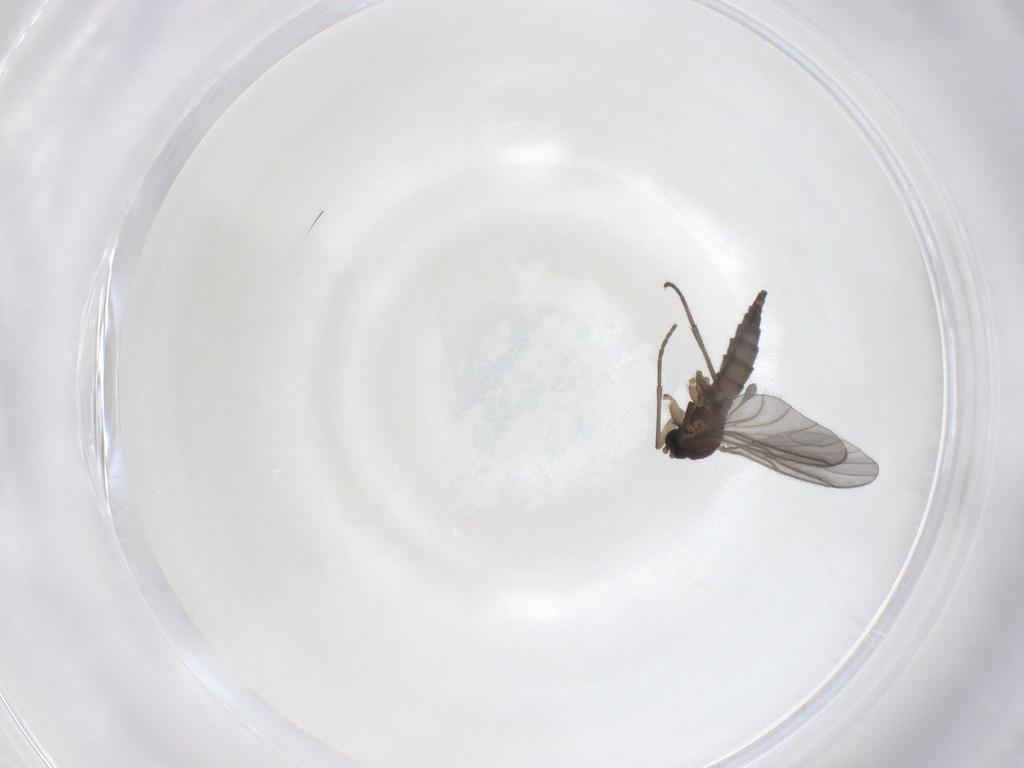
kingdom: Animalia
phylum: Arthropoda
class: Insecta
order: Diptera
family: Sciaridae
